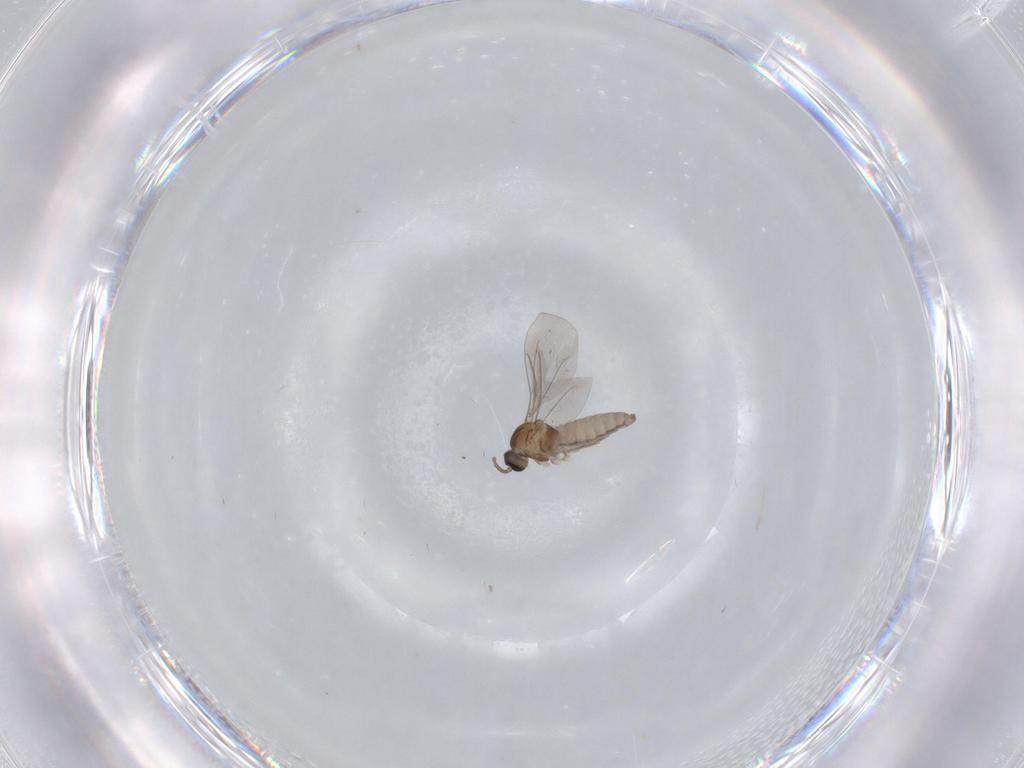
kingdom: Animalia
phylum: Arthropoda
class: Insecta
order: Diptera
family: Cecidomyiidae
